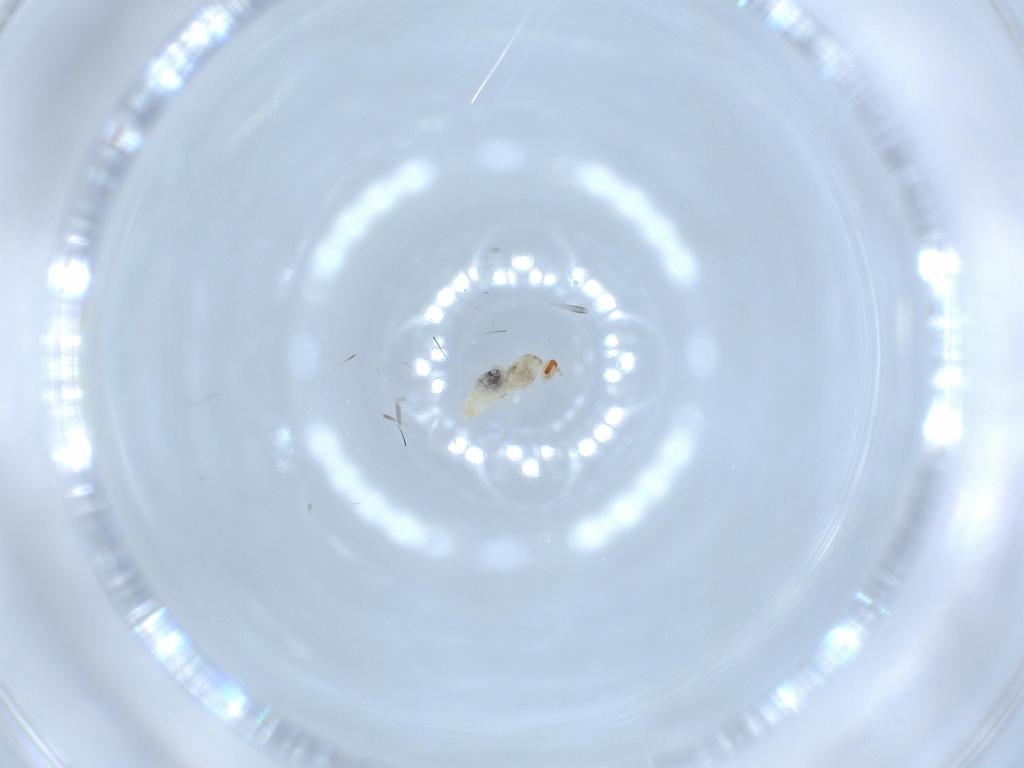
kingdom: Animalia
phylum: Arthropoda
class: Insecta
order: Diptera
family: Cecidomyiidae
